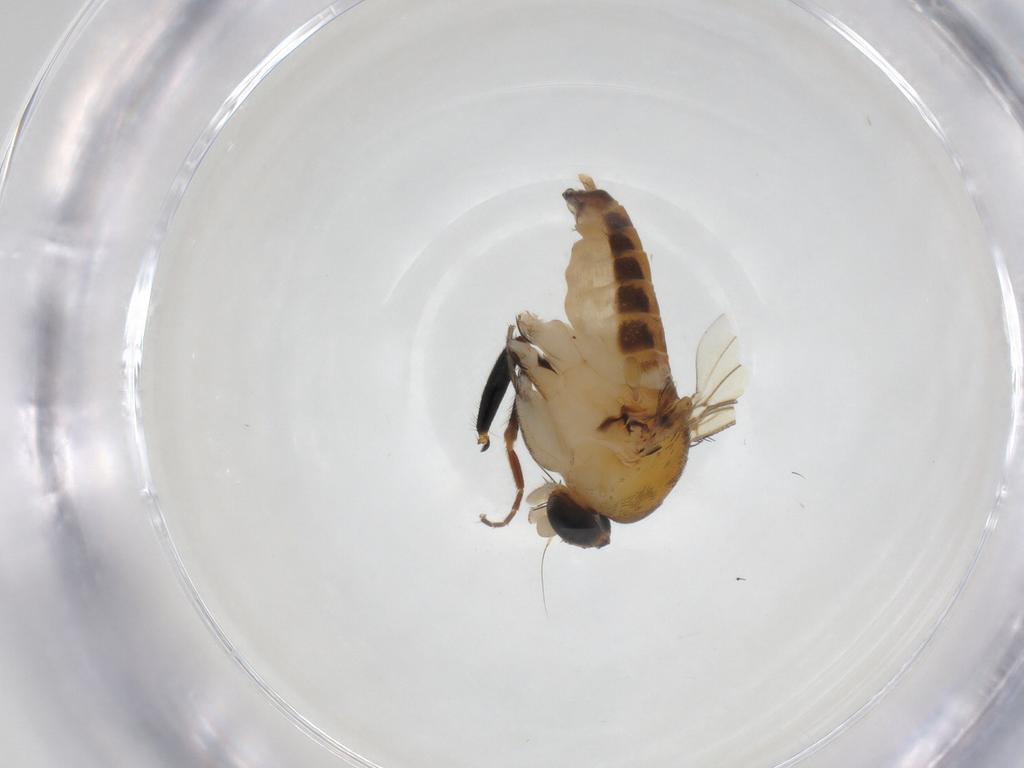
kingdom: Animalia
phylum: Arthropoda
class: Insecta
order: Diptera
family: Phoridae
